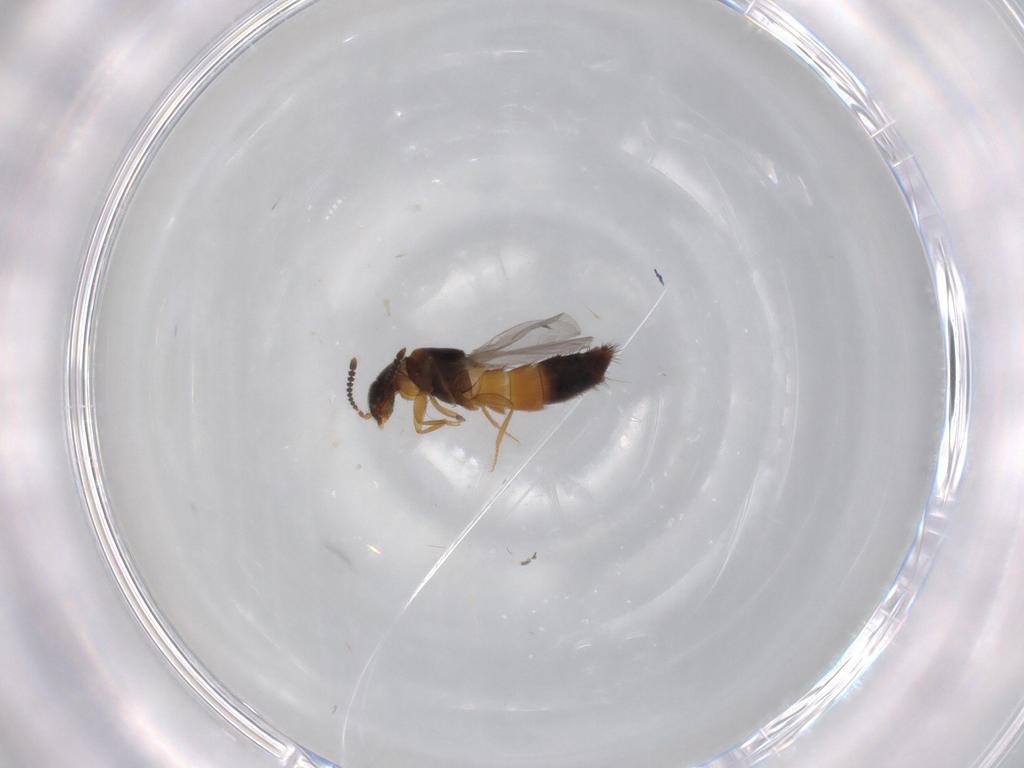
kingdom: Animalia
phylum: Arthropoda
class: Insecta
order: Coleoptera
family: Staphylinidae
